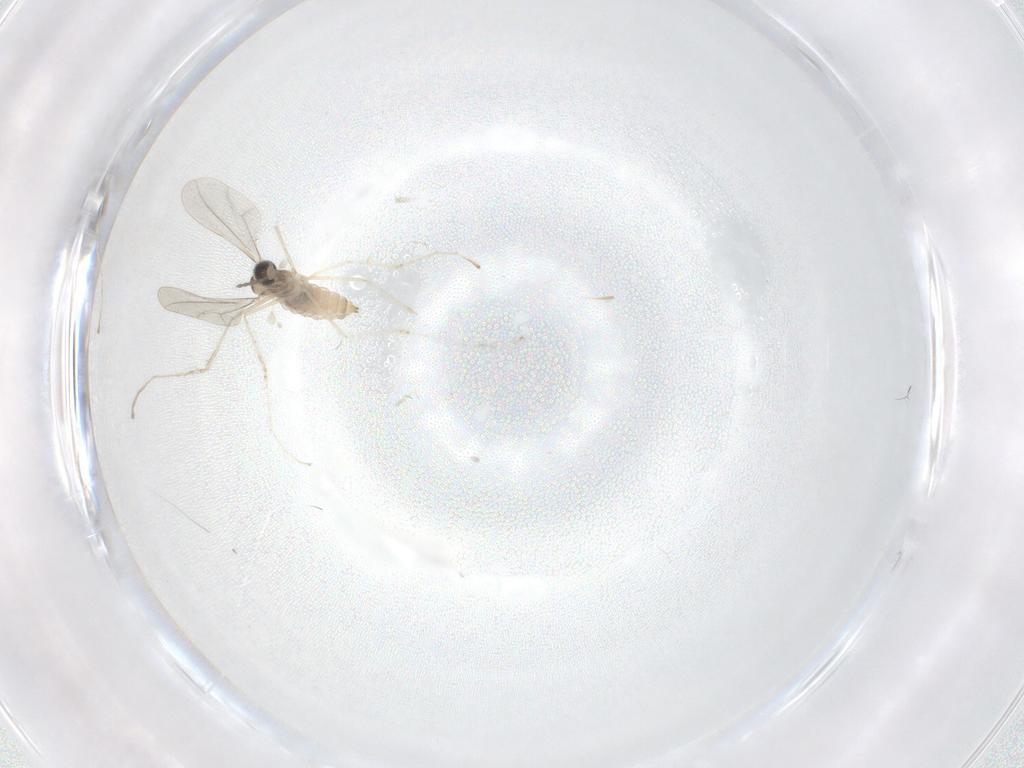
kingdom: Animalia
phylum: Arthropoda
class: Insecta
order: Diptera
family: Cecidomyiidae
